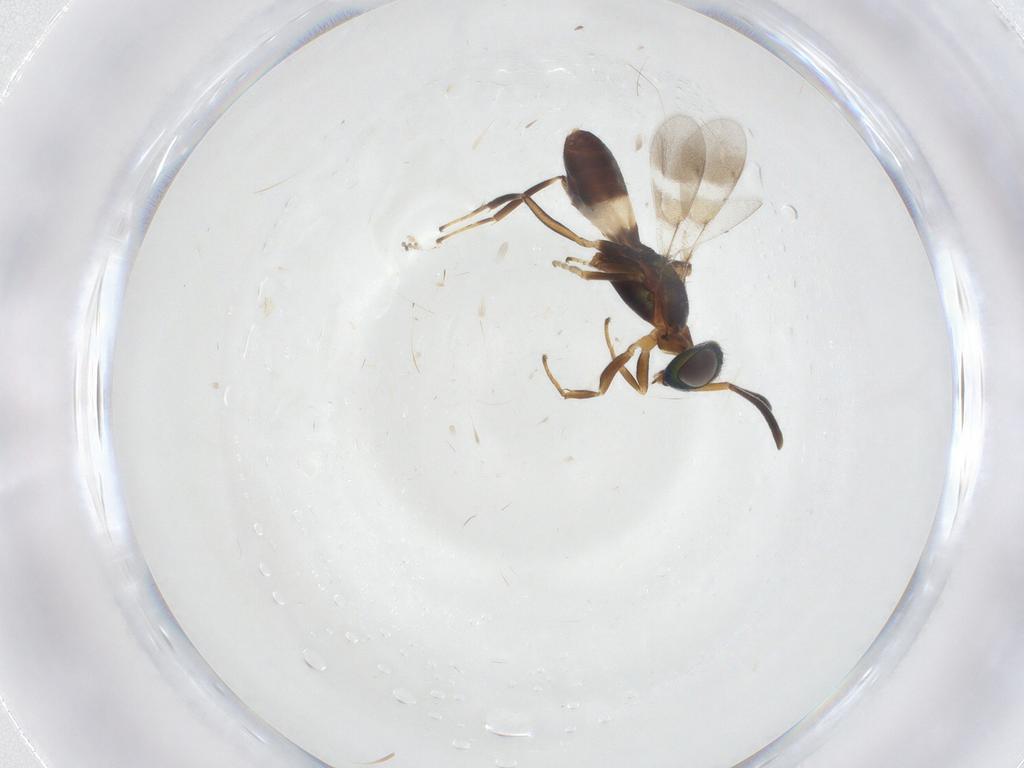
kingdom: Animalia
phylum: Arthropoda
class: Insecta
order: Hymenoptera
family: Eupelmidae
